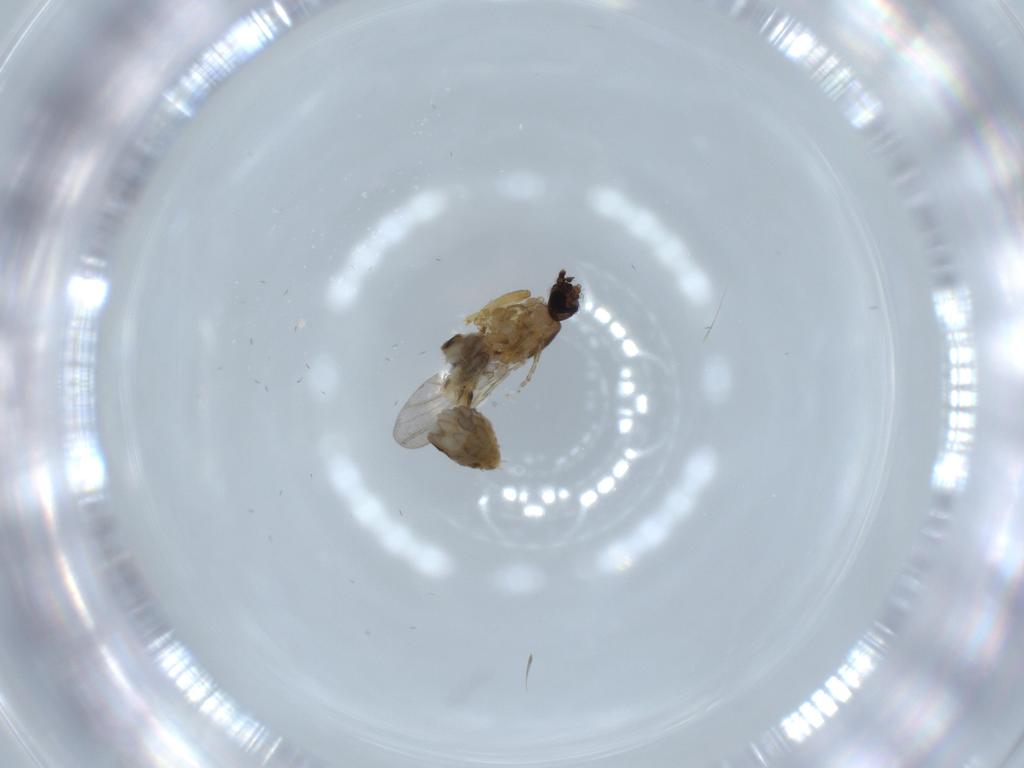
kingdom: Animalia
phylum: Arthropoda
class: Insecta
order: Diptera
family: Ceratopogonidae
